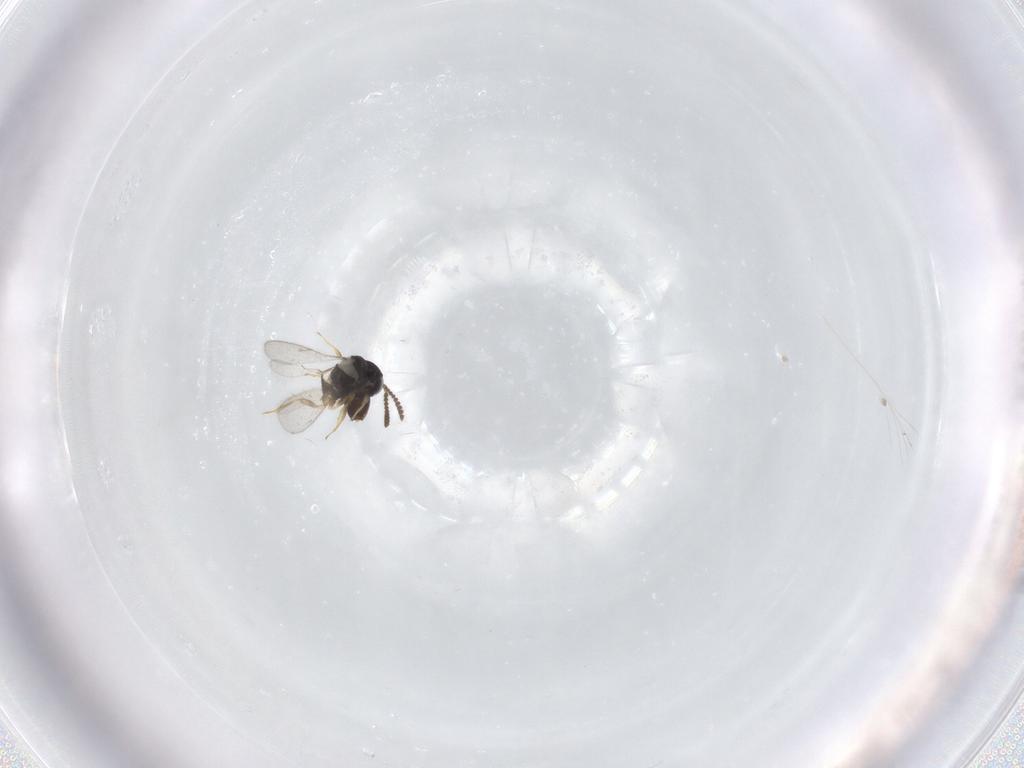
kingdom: Animalia
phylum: Arthropoda
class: Insecta
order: Hymenoptera
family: Scelionidae
